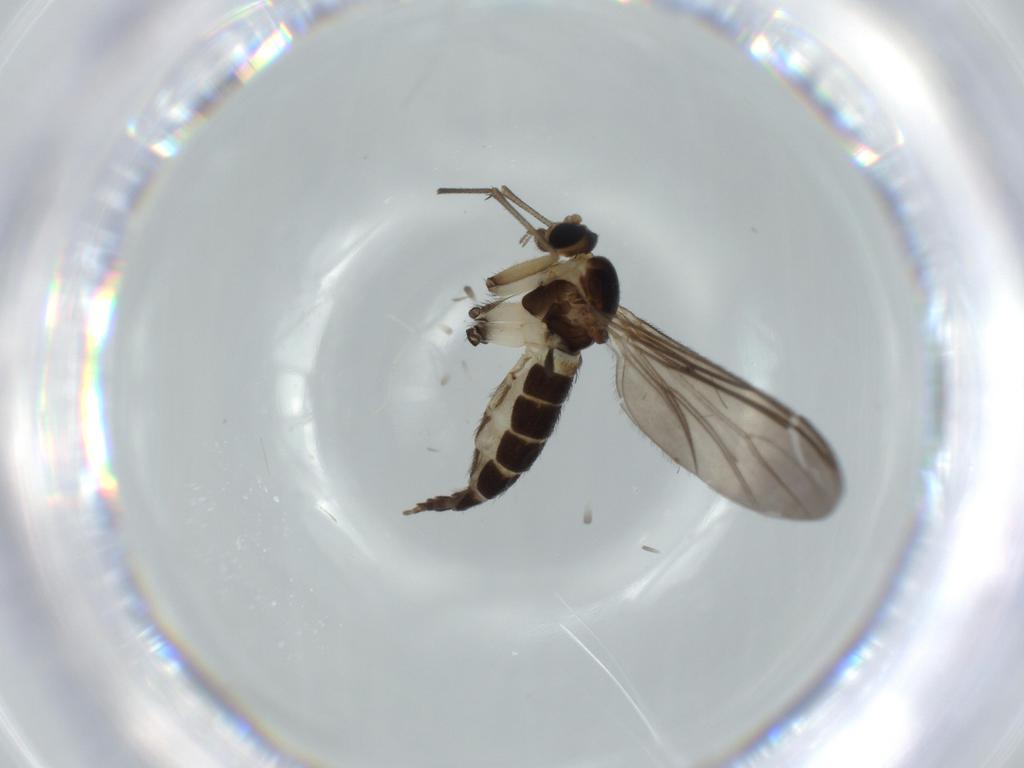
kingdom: Animalia
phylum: Arthropoda
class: Insecta
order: Diptera
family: Sciaridae
